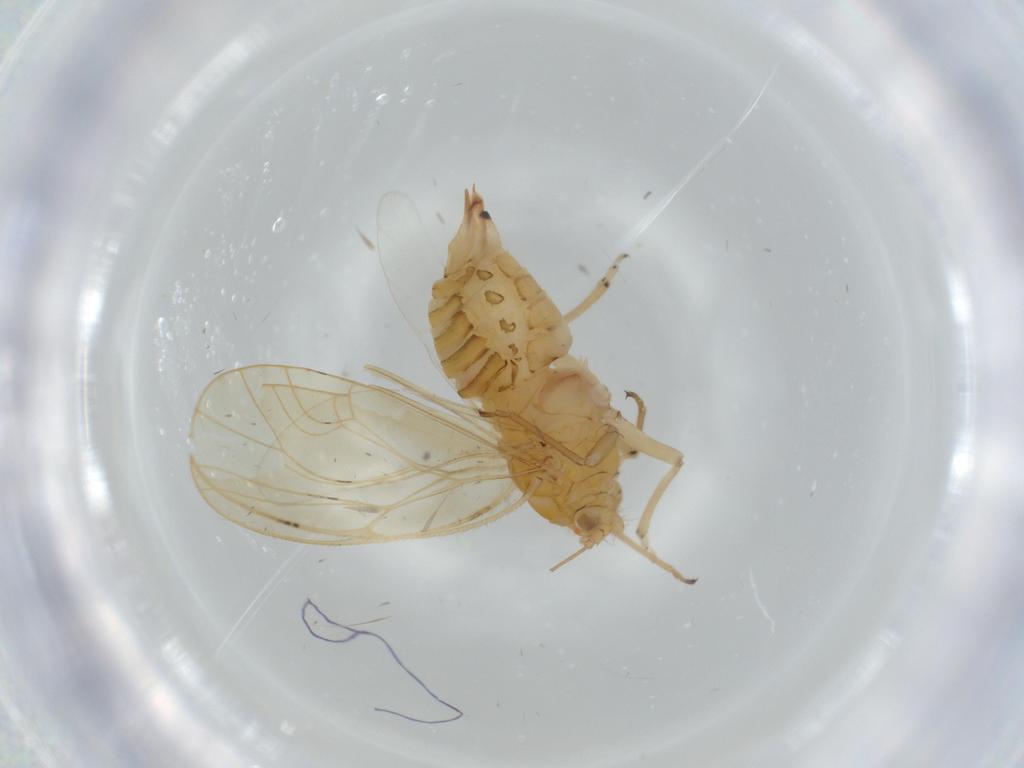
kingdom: Animalia
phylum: Arthropoda
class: Insecta
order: Hemiptera
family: Psyllidae
